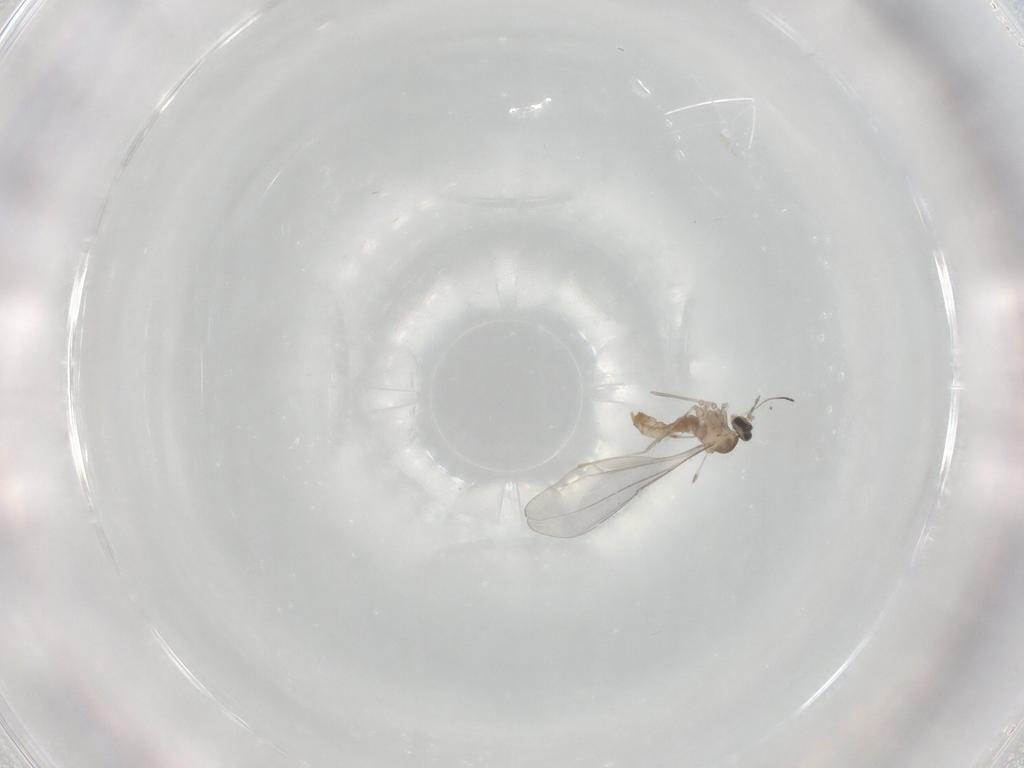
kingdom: Animalia
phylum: Arthropoda
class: Insecta
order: Diptera
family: Cecidomyiidae
